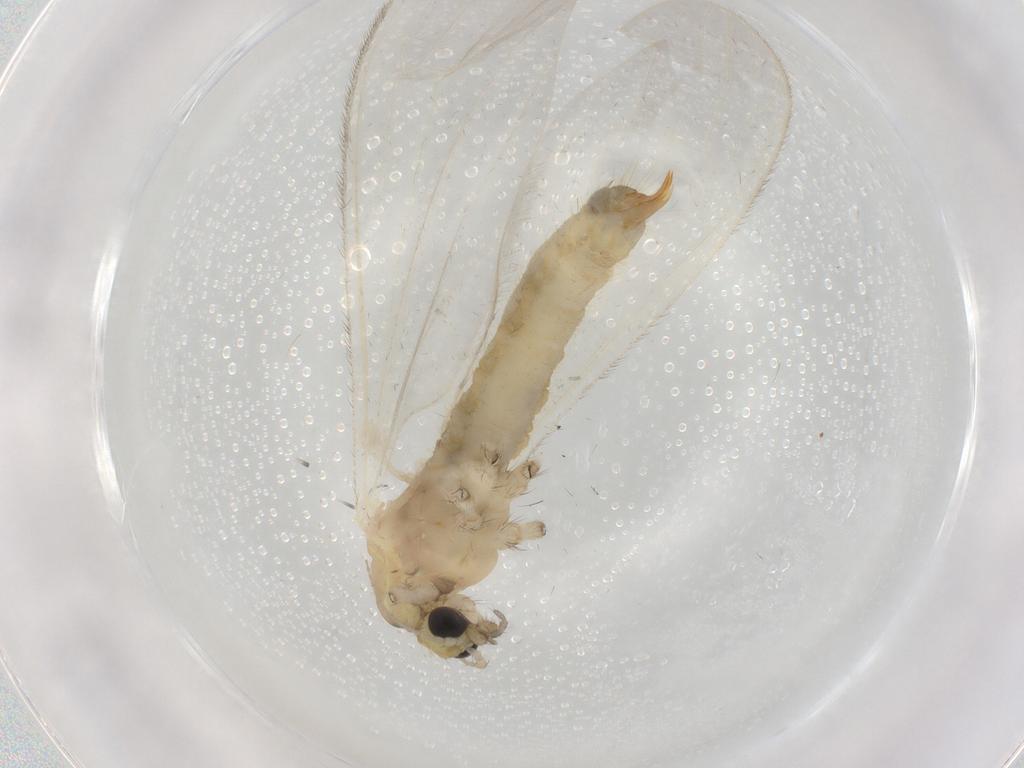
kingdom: Animalia
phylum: Arthropoda
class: Insecta
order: Diptera
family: Limoniidae
